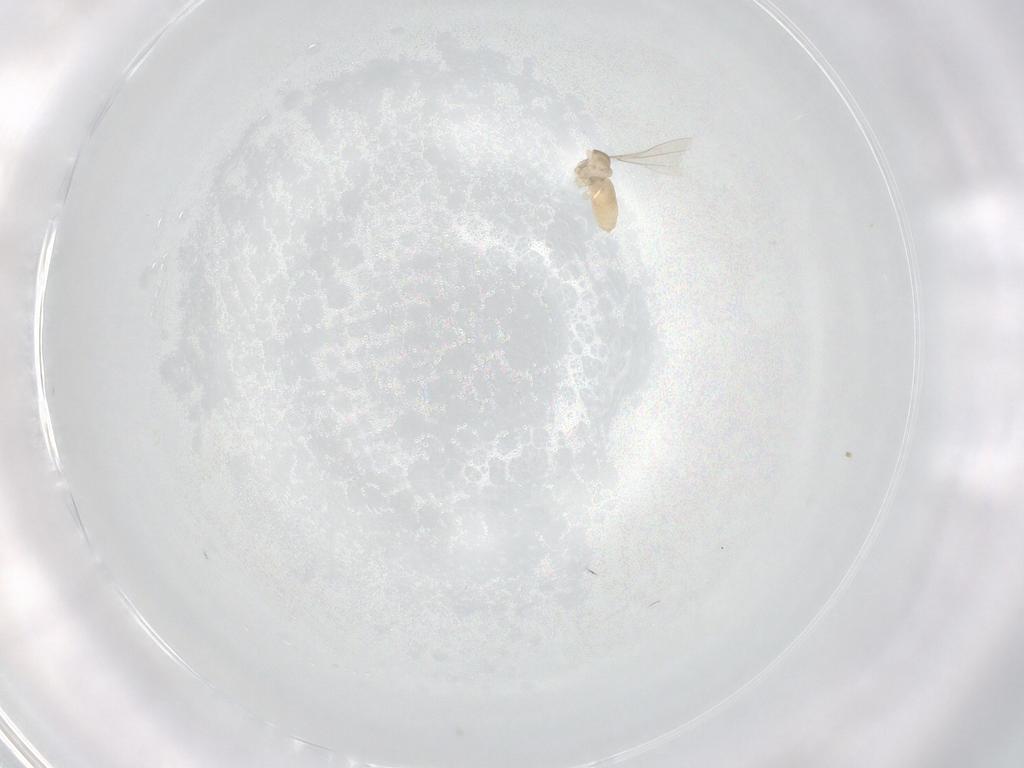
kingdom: Animalia
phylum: Arthropoda
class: Insecta
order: Diptera
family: Cecidomyiidae
